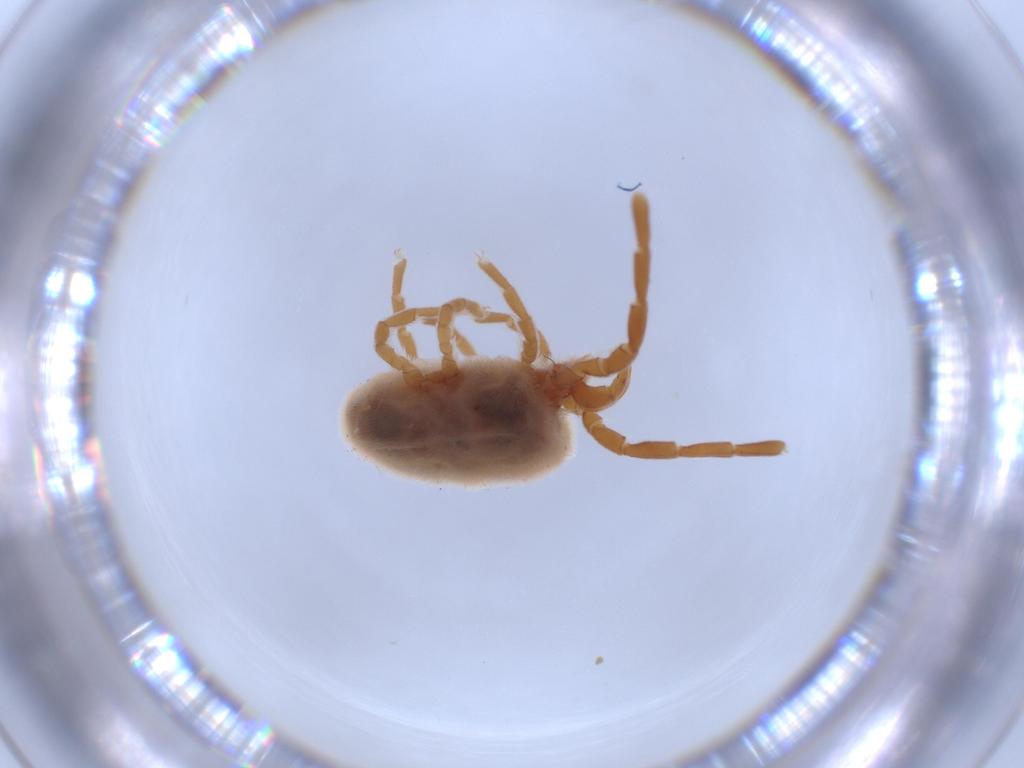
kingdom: Animalia
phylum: Arthropoda
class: Arachnida
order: Trombidiformes
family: Trombidiidae
